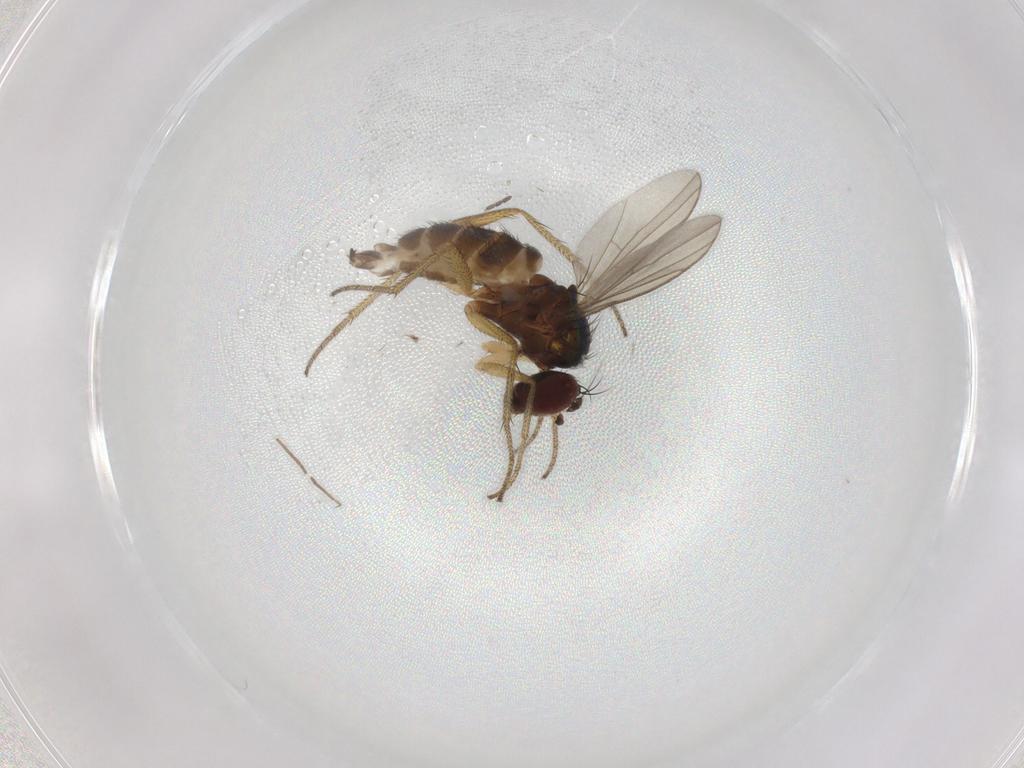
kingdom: Animalia
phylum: Arthropoda
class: Insecta
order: Diptera
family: Dolichopodidae
